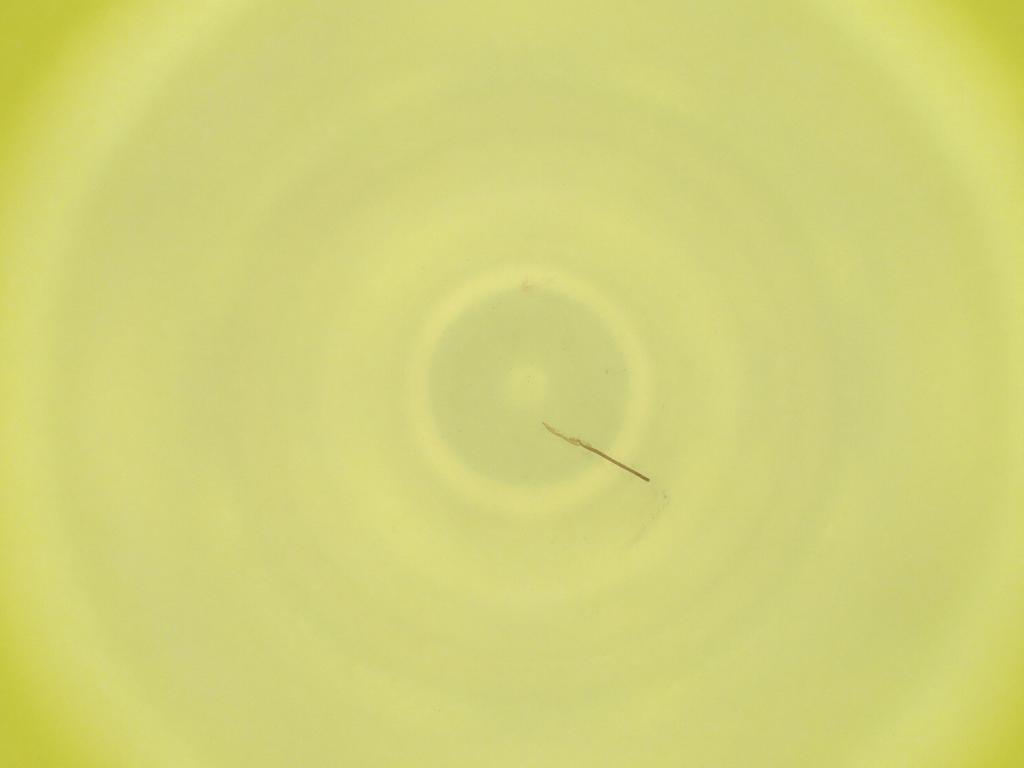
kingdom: Animalia
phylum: Arthropoda
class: Insecta
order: Diptera
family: Cecidomyiidae
